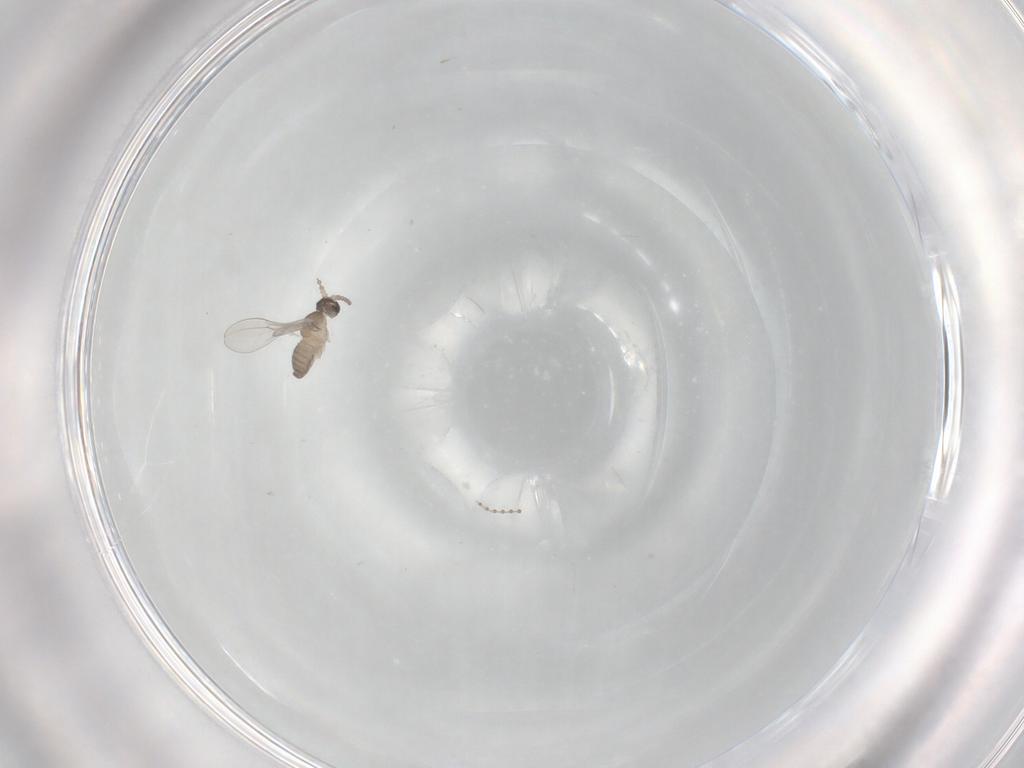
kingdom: Animalia
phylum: Arthropoda
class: Insecta
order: Diptera
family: Cecidomyiidae
